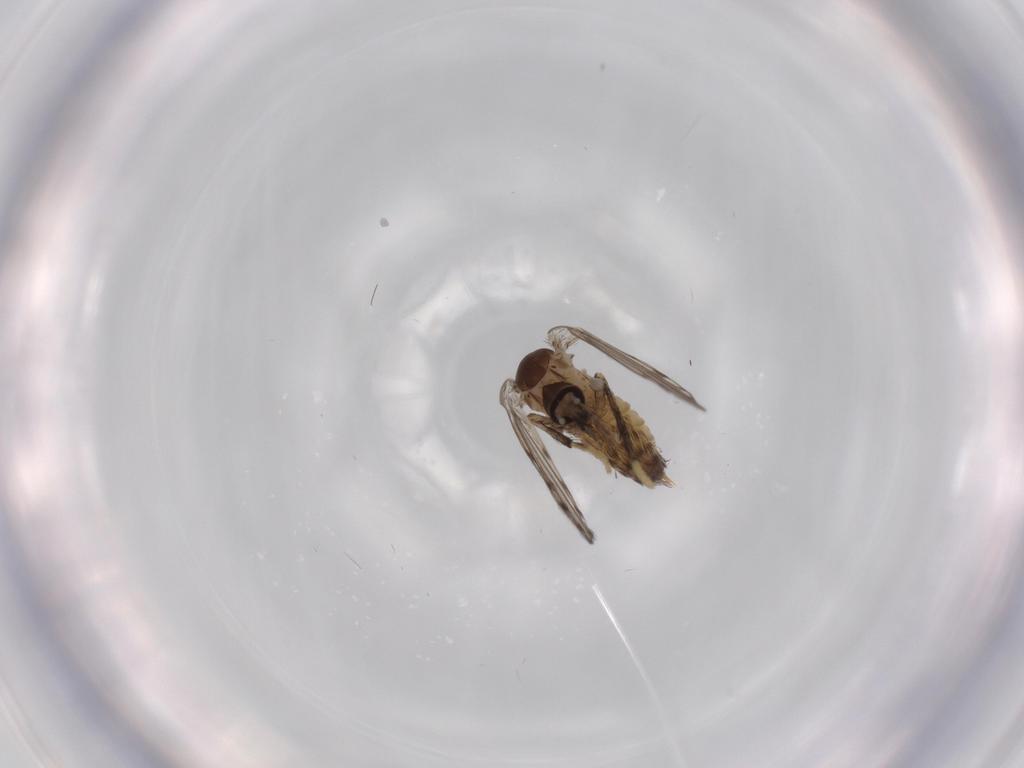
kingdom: Animalia
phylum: Arthropoda
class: Insecta
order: Diptera
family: Psychodidae
